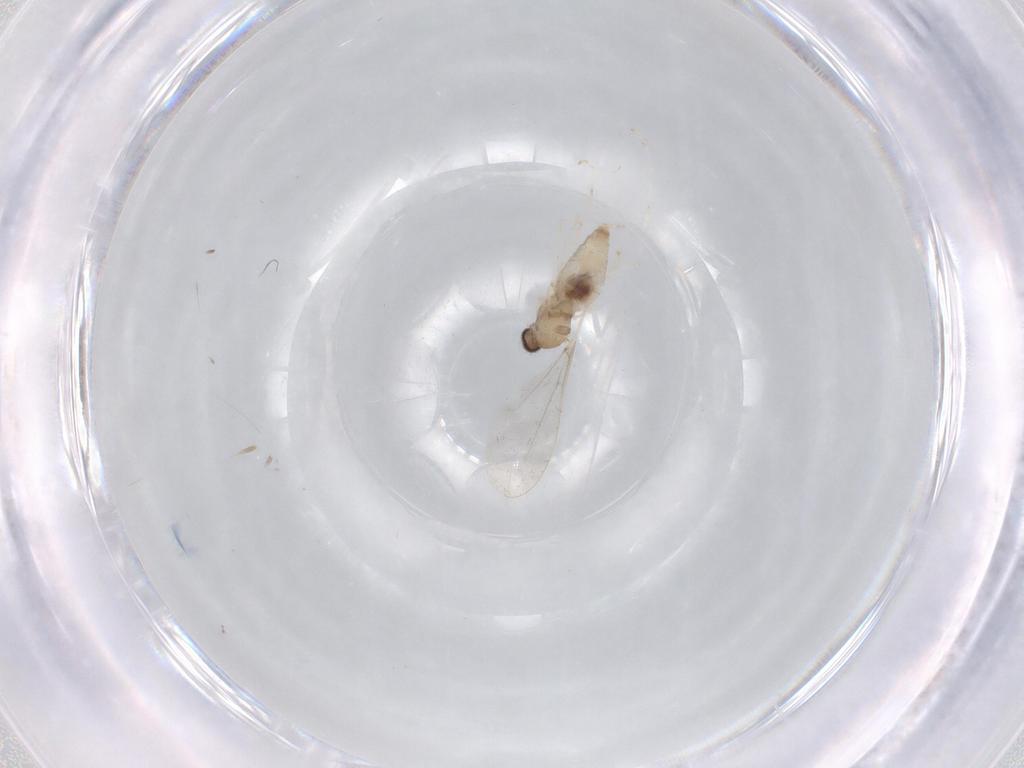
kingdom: Animalia
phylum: Arthropoda
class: Insecta
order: Diptera
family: Cecidomyiidae
